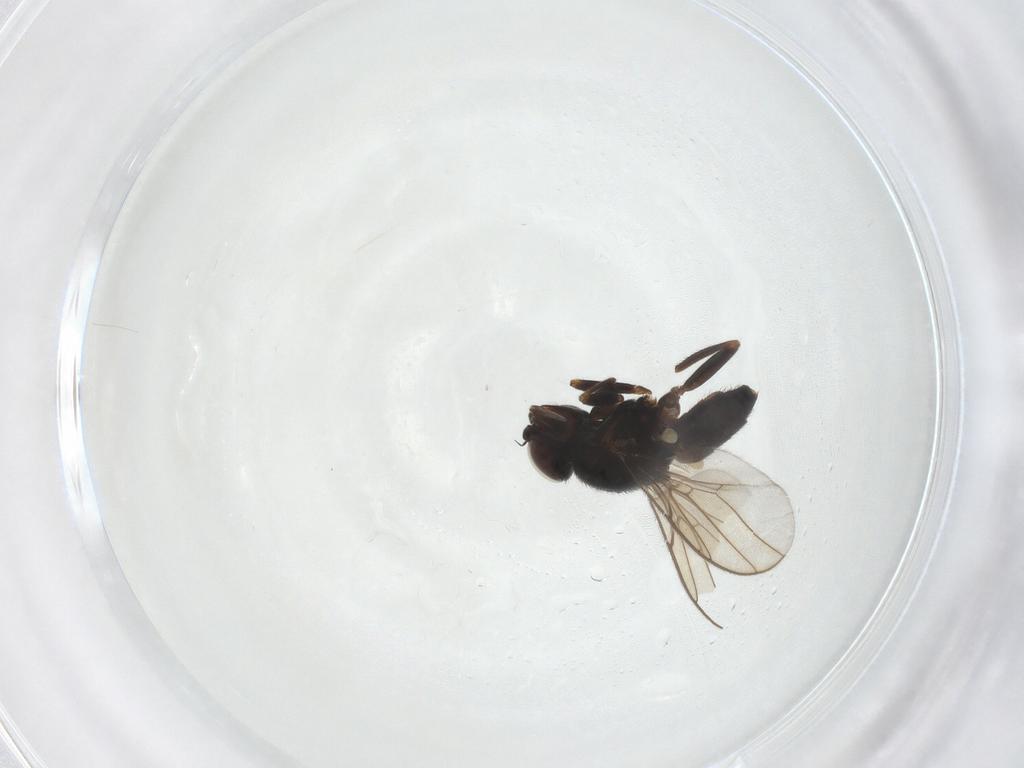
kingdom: Animalia
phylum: Arthropoda
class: Insecta
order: Diptera
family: Chloropidae
